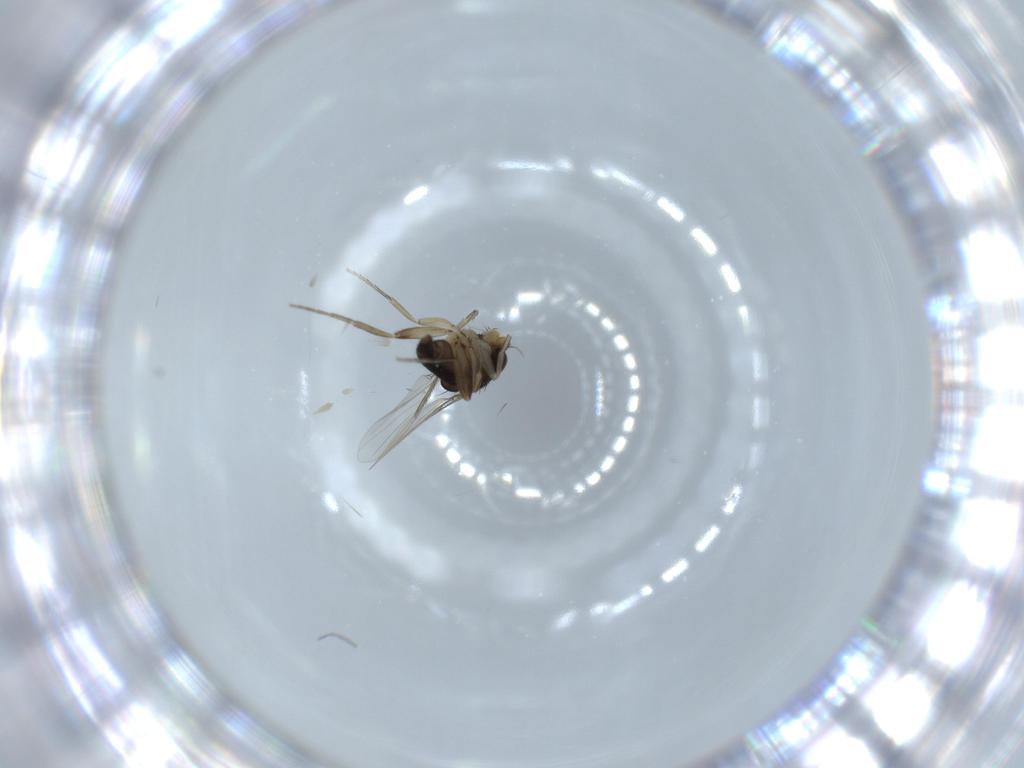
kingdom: Animalia
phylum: Arthropoda
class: Insecta
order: Diptera
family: Phoridae
